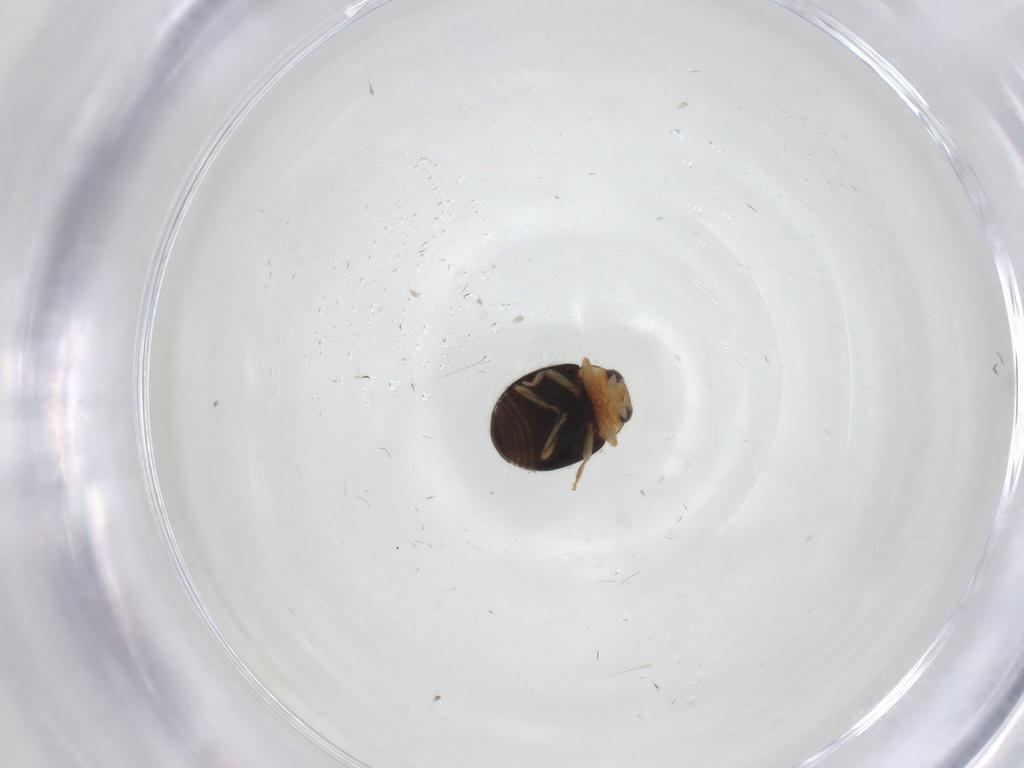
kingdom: Animalia
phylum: Arthropoda
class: Insecta
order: Coleoptera
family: Coccinellidae
